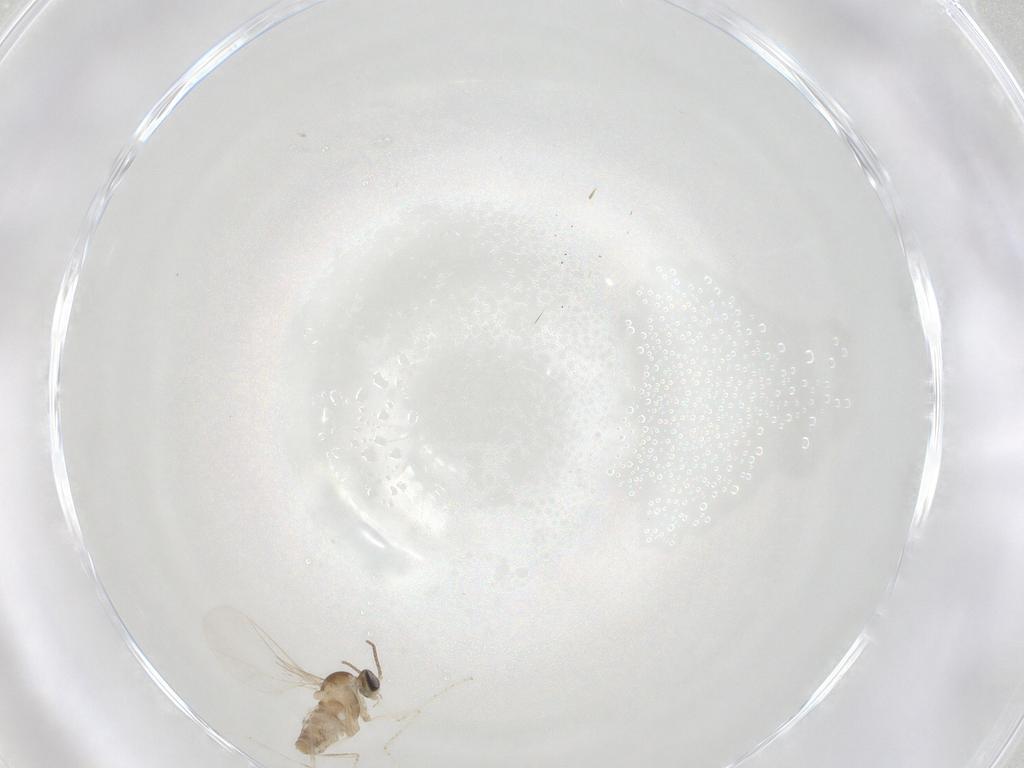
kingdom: Animalia
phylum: Arthropoda
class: Insecta
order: Diptera
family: Cecidomyiidae
